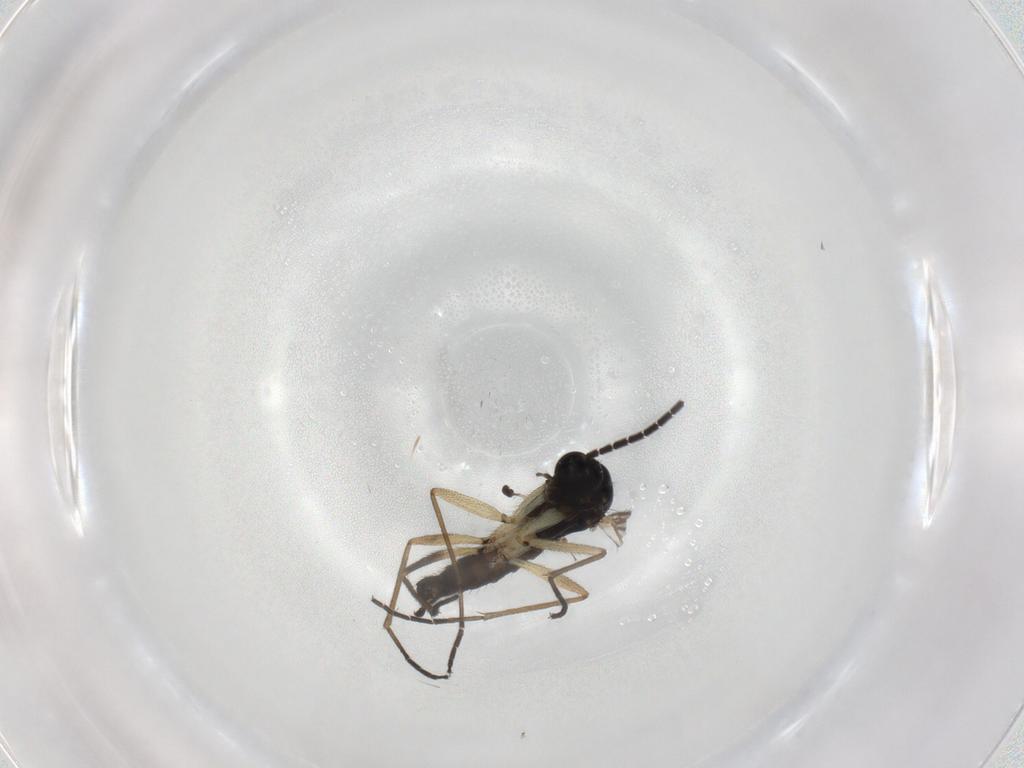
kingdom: Animalia
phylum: Arthropoda
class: Insecta
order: Diptera
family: Sciaridae
